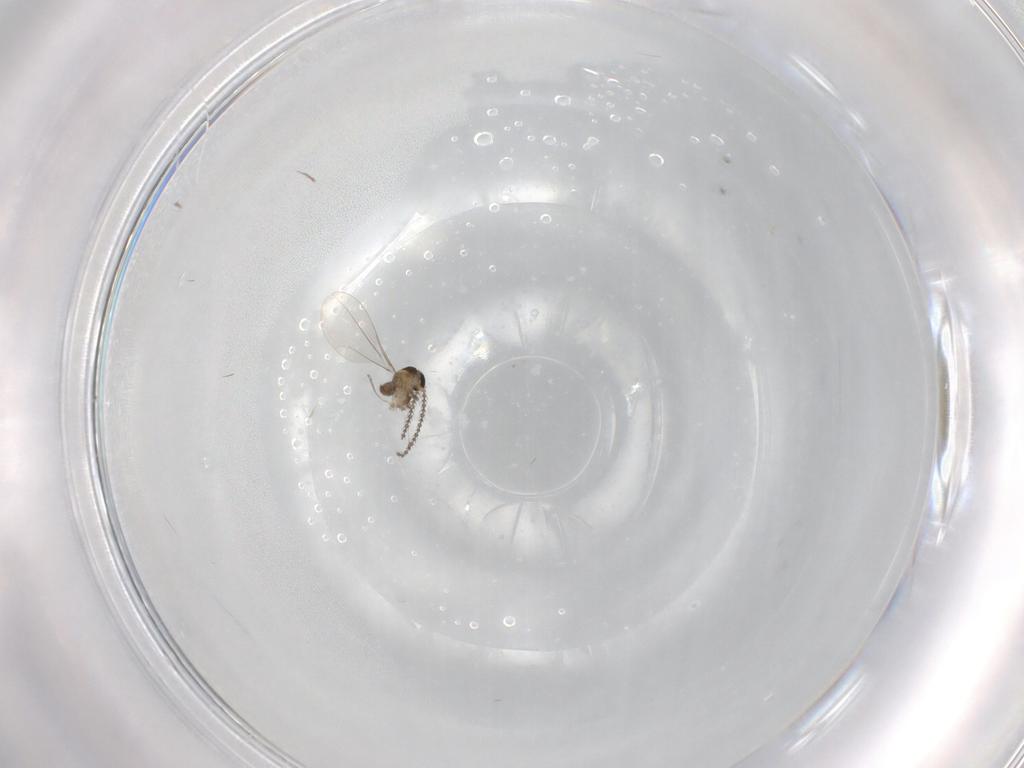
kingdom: Animalia
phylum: Arthropoda
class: Insecta
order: Diptera
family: Cecidomyiidae
